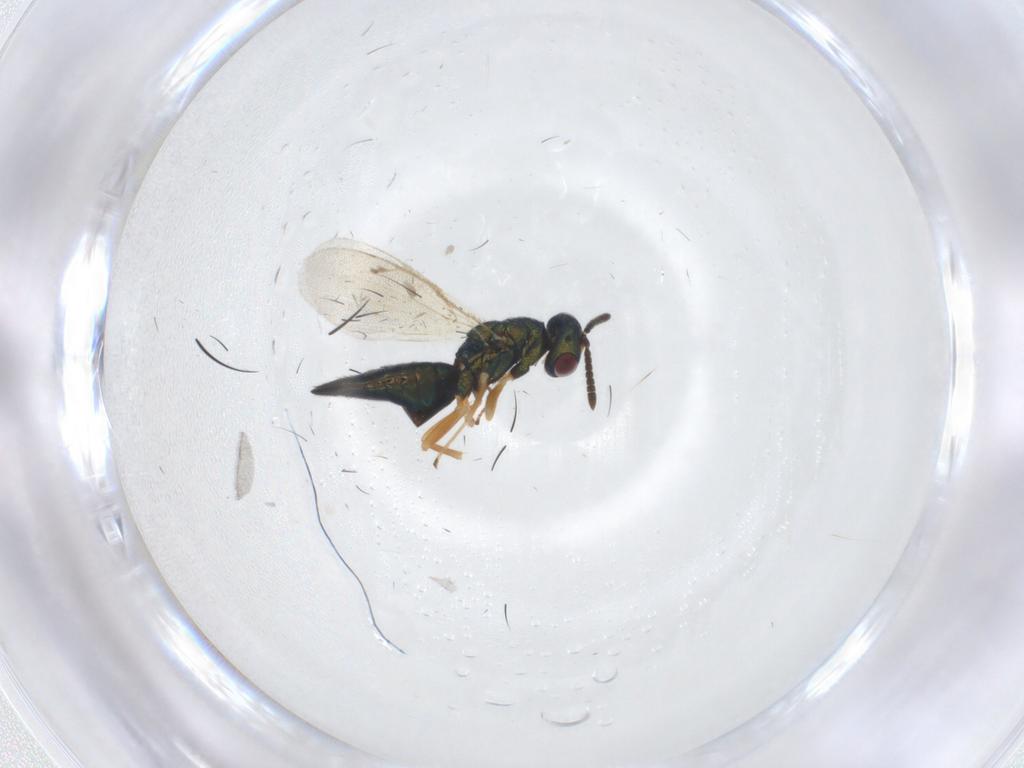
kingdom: Animalia
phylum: Arthropoda
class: Insecta
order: Hymenoptera
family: Pteromalidae
